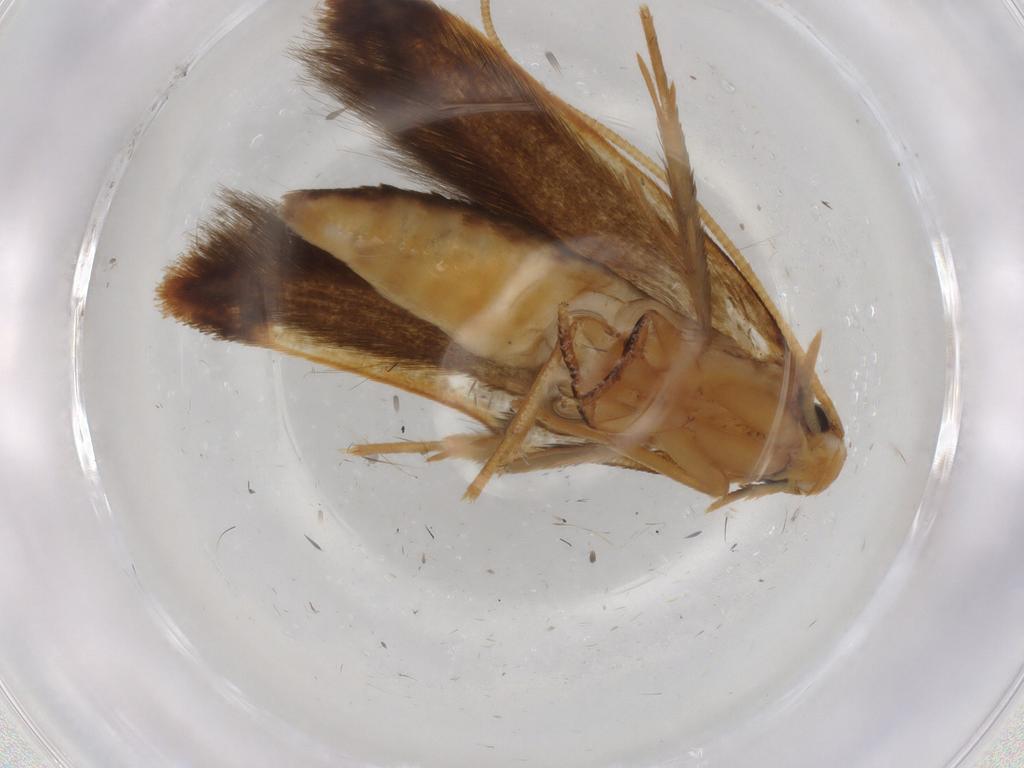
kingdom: Animalia
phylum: Arthropoda
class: Insecta
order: Lepidoptera
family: Tineidae
